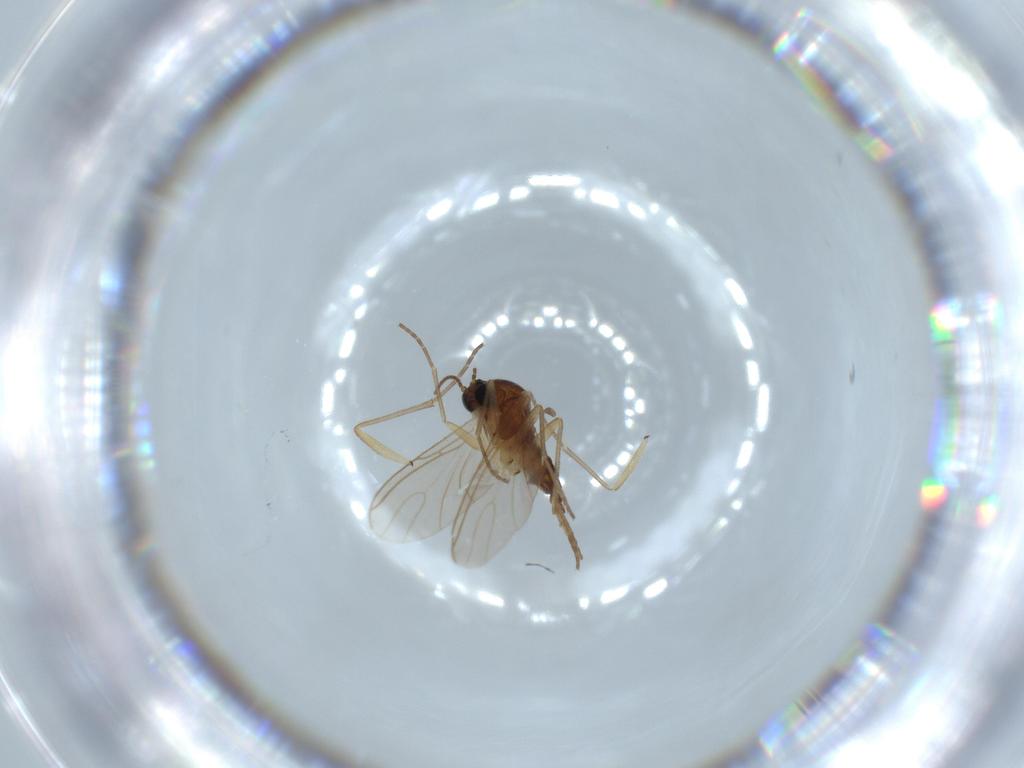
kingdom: Animalia
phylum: Arthropoda
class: Insecta
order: Diptera
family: Sciaridae
